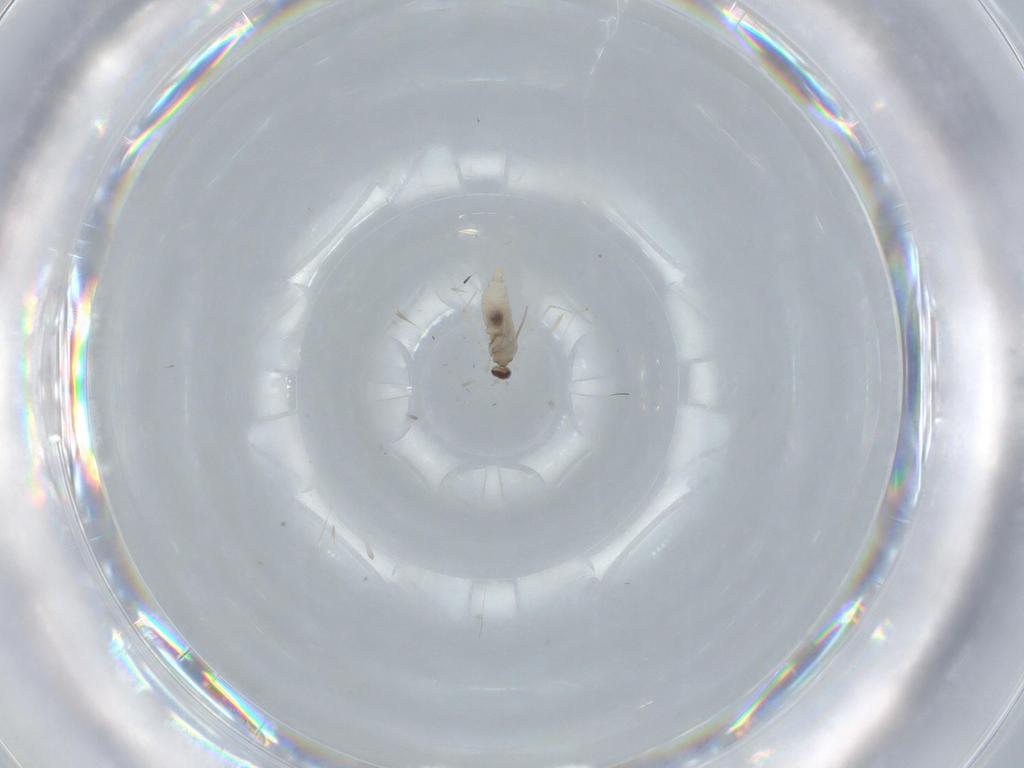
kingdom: Animalia
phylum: Arthropoda
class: Insecta
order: Diptera
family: Cecidomyiidae
